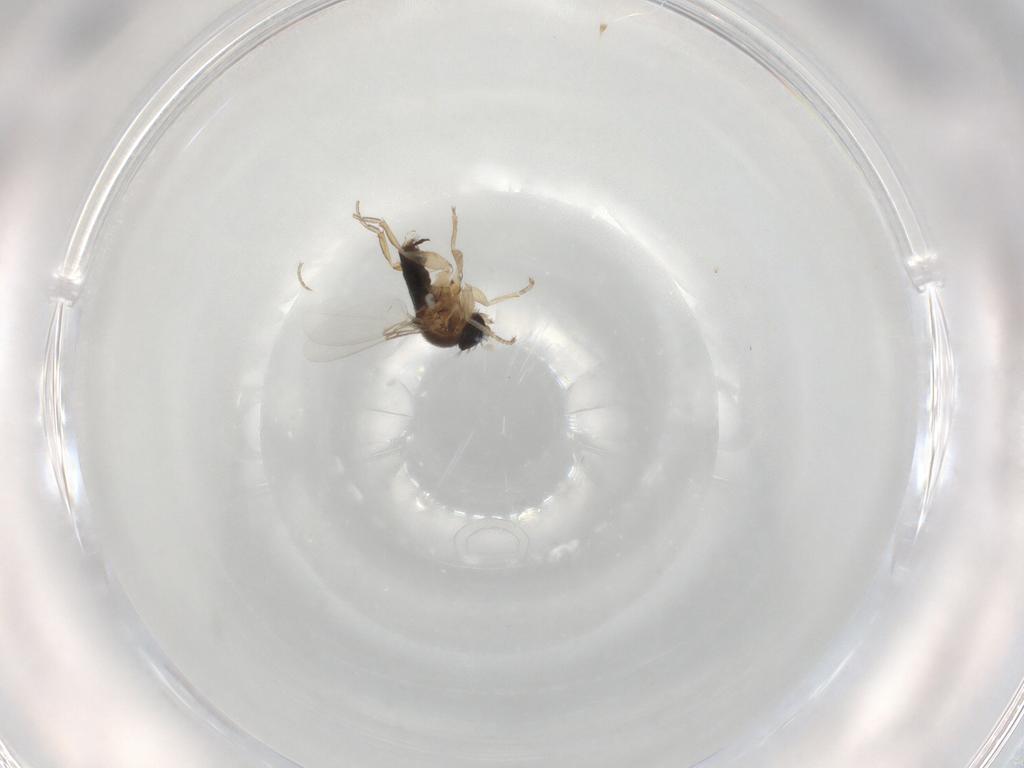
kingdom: Animalia
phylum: Arthropoda
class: Insecta
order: Diptera
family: Phoridae
